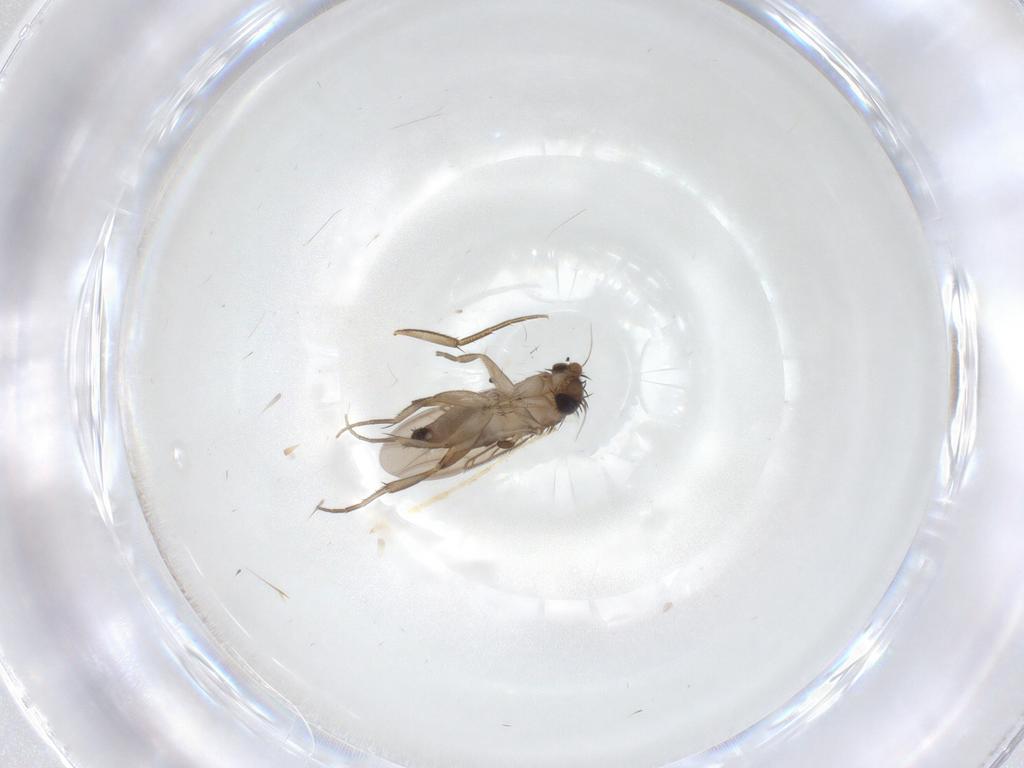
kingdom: Animalia
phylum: Arthropoda
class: Insecta
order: Diptera
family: Phoridae
